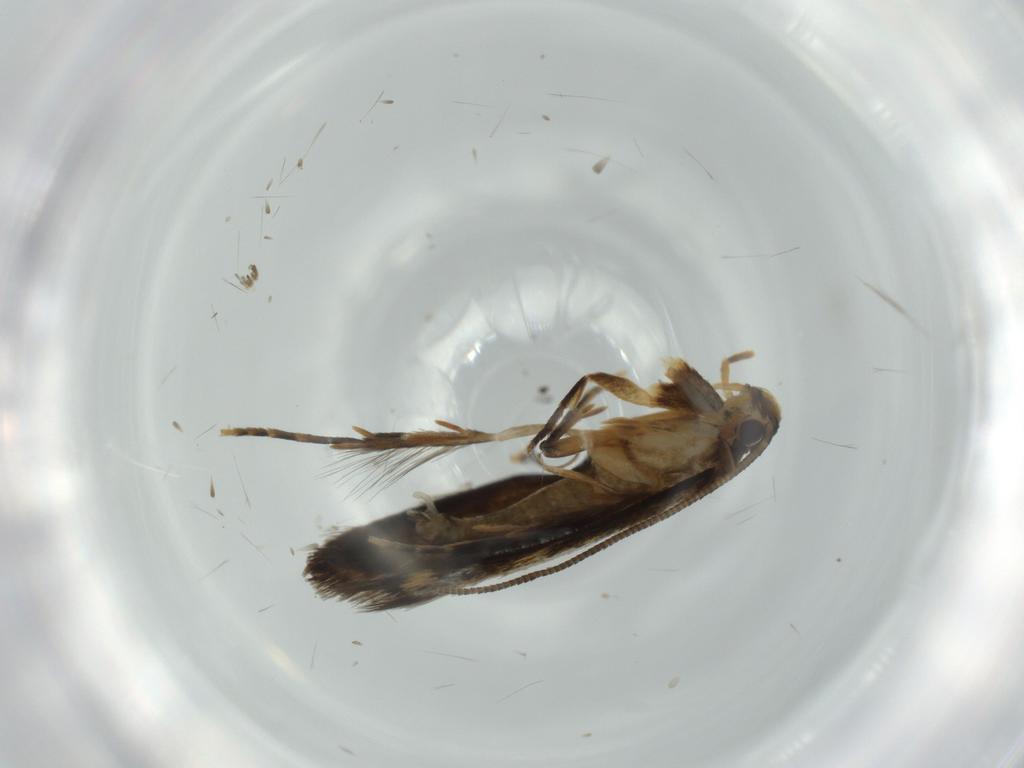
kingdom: Animalia
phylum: Arthropoda
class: Insecta
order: Lepidoptera
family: Tineidae
